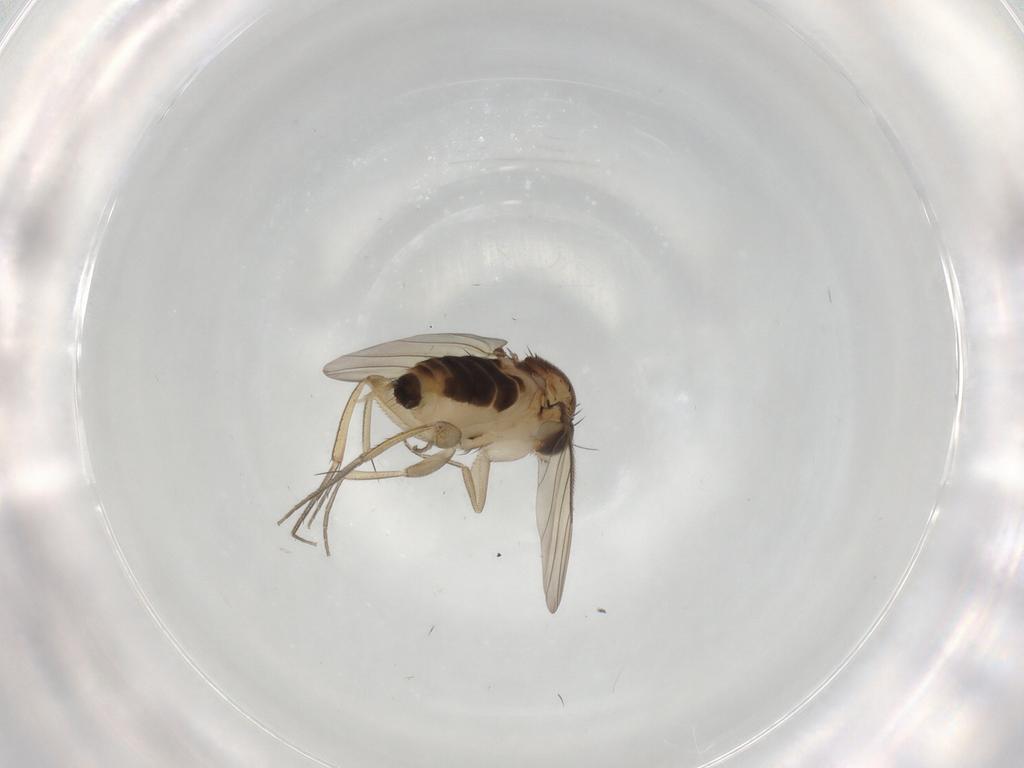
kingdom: Animalia
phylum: Arthropoda
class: Insecta
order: Diptera
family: Phoridae
